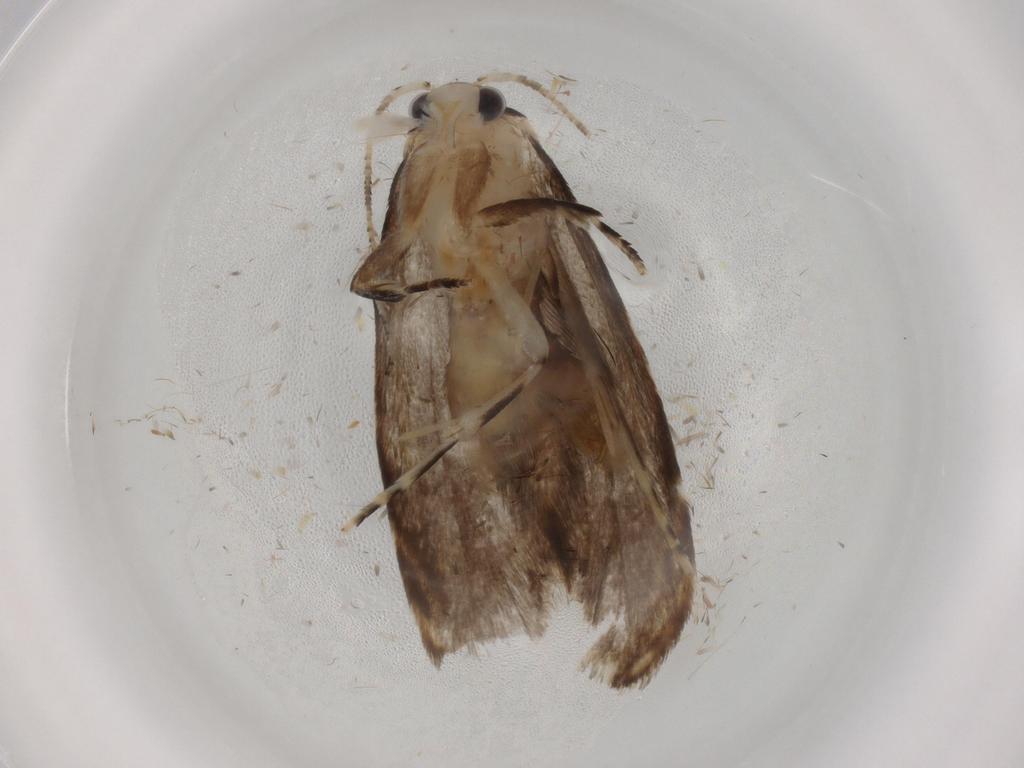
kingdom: Animalia
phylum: Arthropoda
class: Insecta
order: Lepidoptera
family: Tineidae
